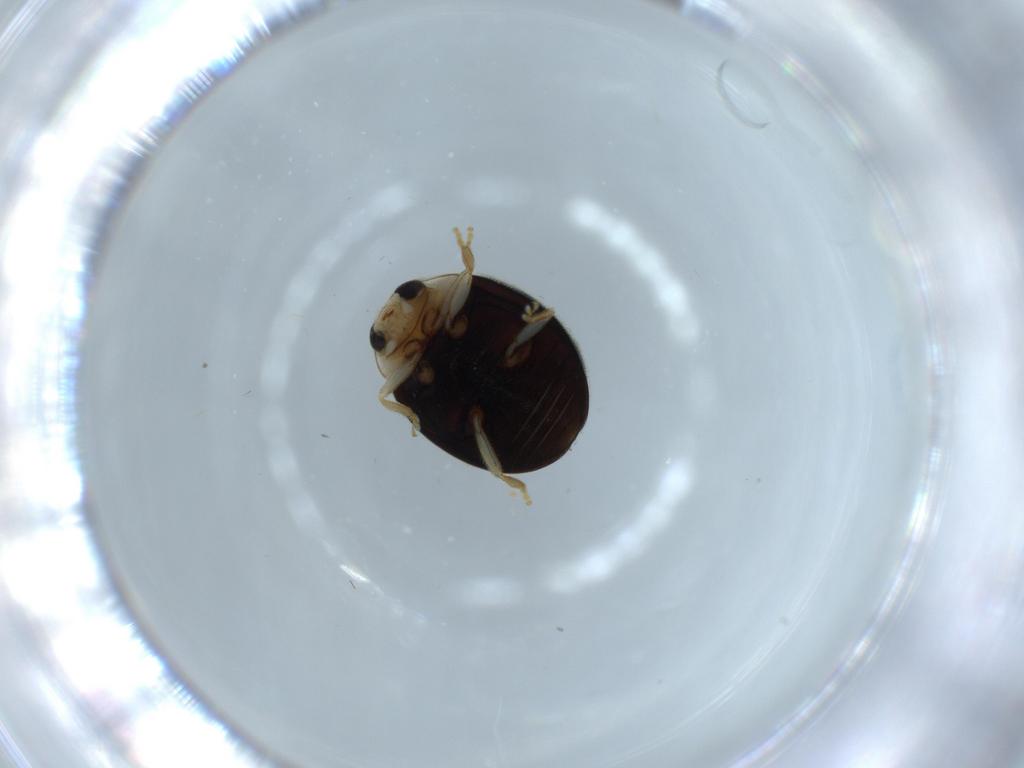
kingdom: Animalia
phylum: Arthropoda
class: Insecta
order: Coleoptera
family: Coccinellidae
